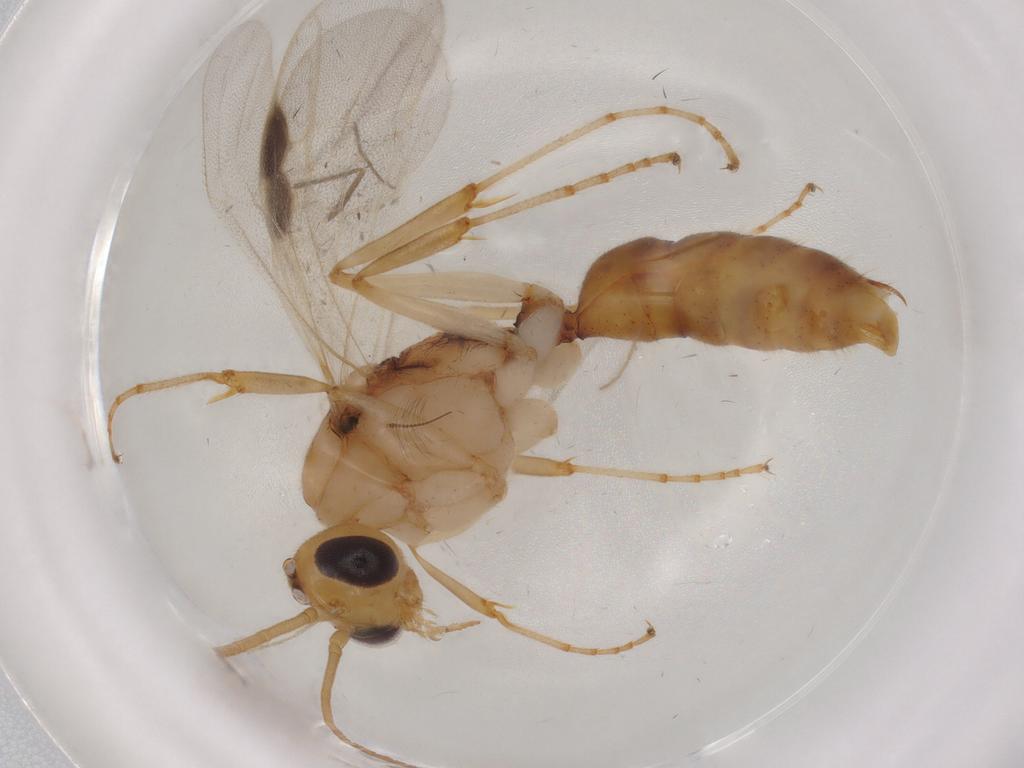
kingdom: Animalia
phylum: Arthropoda
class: Insecta
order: Hymenoptera
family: Formicidae
